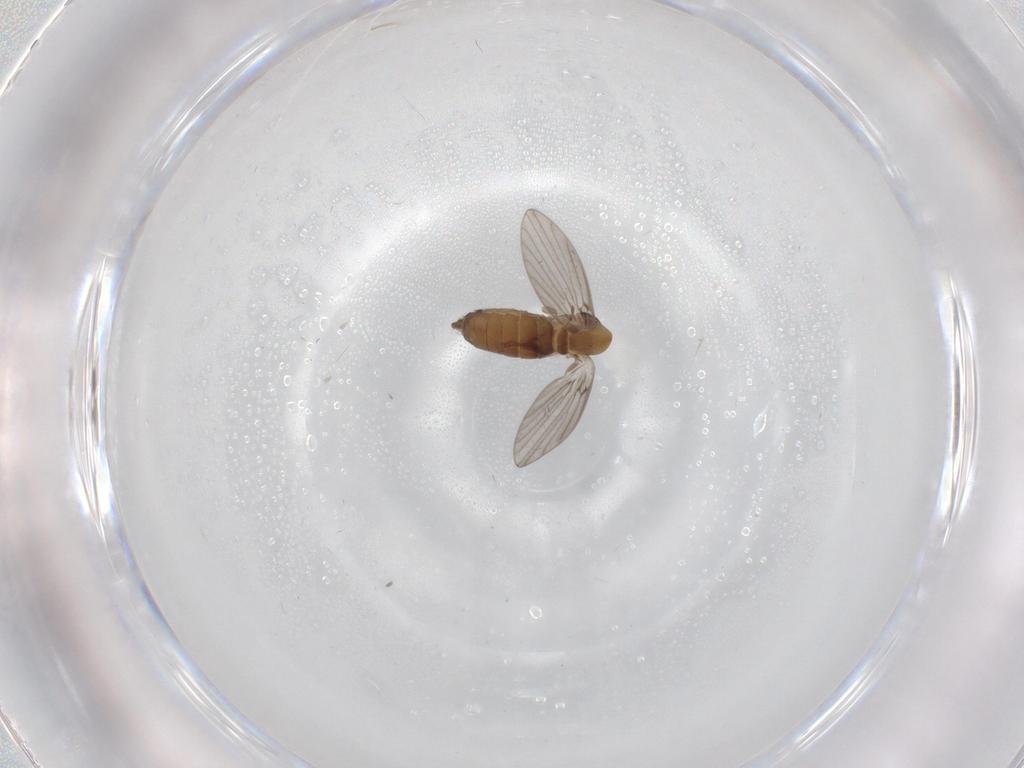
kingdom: Animalia
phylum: Arthropoda
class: Insecta
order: Diptera
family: Psychodidae
